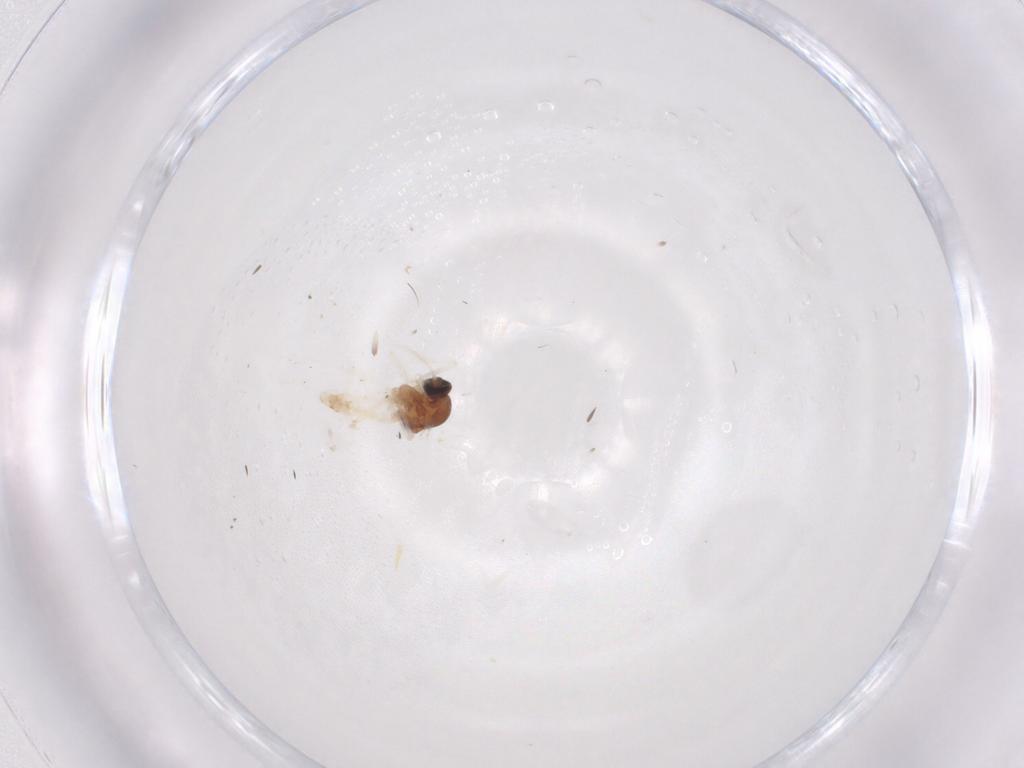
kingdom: Animalia
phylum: Arthropoda
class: Insecta
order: Diptera
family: Ceratopogonidae
